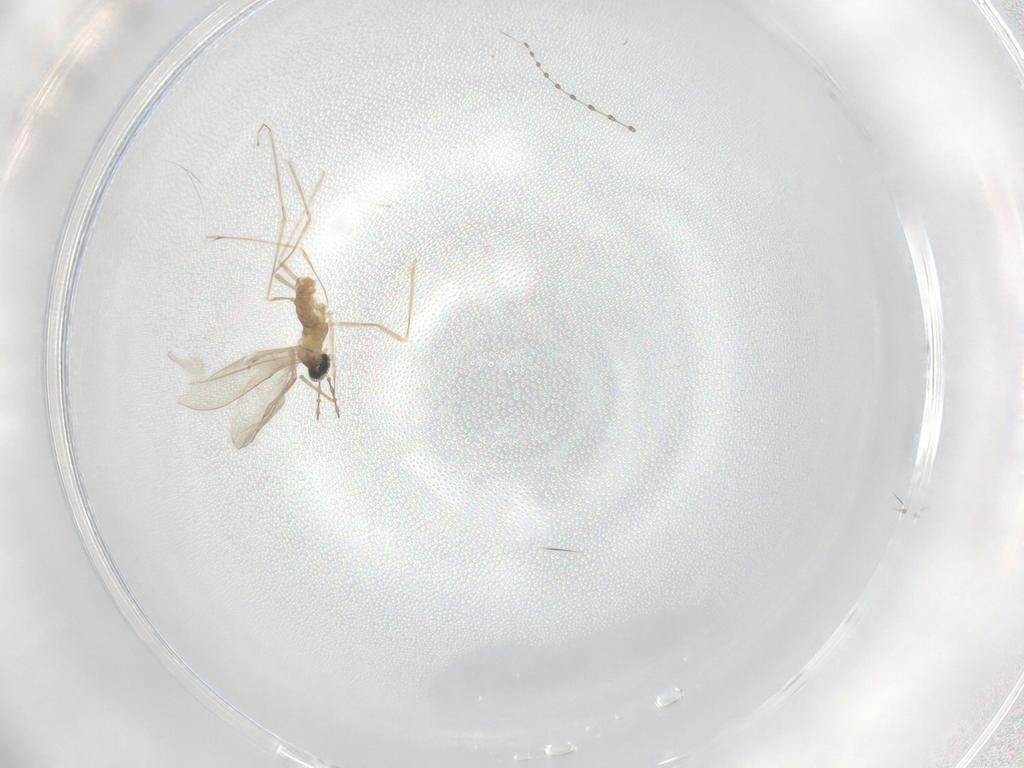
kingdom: Animalia
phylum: Arthropoda
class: Insecta
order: Diptera
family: Cecidomyiidae
